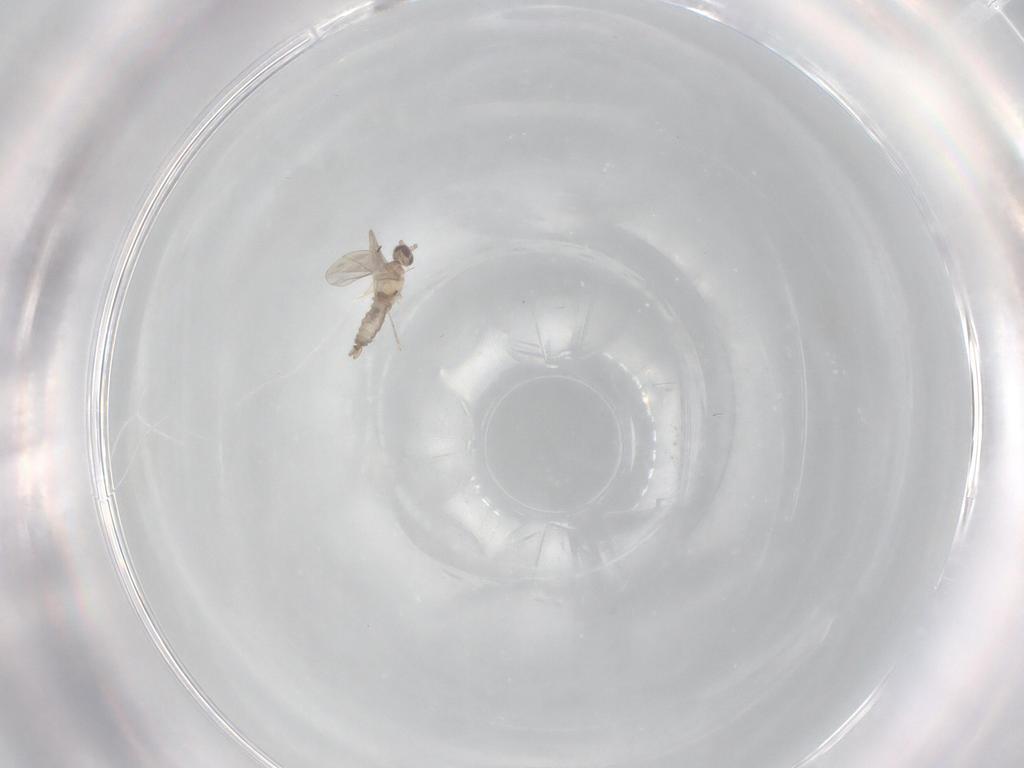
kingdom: Animalia
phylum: Arthropoda
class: Insecta
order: Diptera
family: Cecidomyiidae
